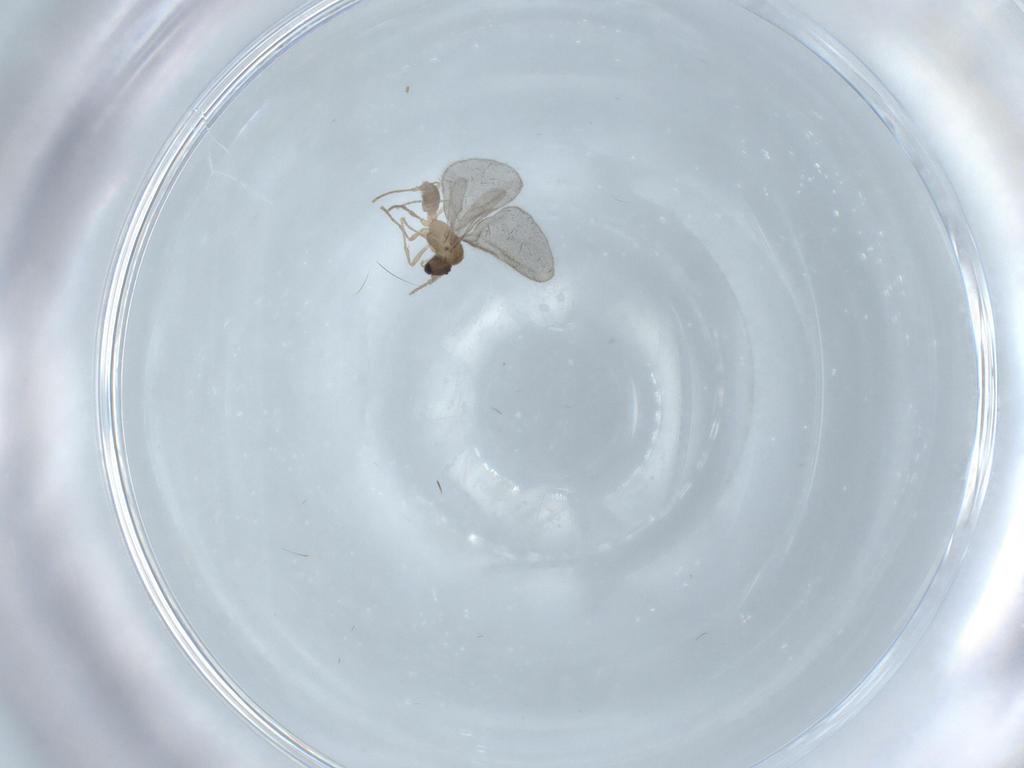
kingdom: Animalia
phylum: Arthropoda
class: Insecta
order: Hymenoptera
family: Formicidae
